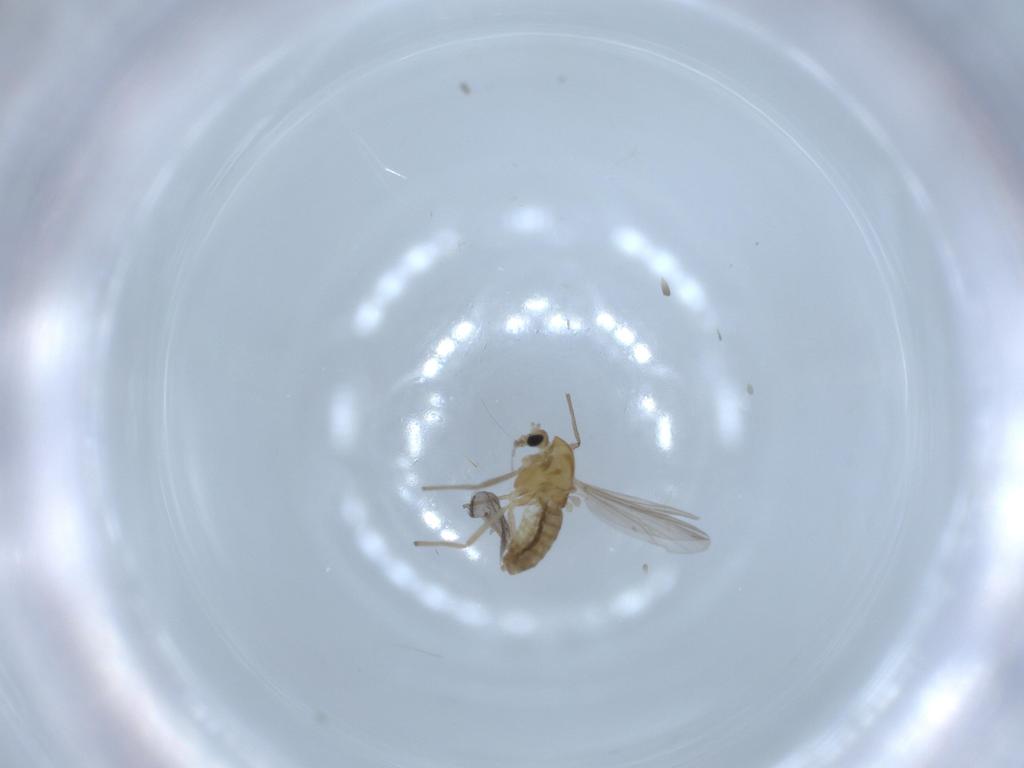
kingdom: Animalia
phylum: Arthropoda
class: Insecta
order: Diptera
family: Chironomidae
